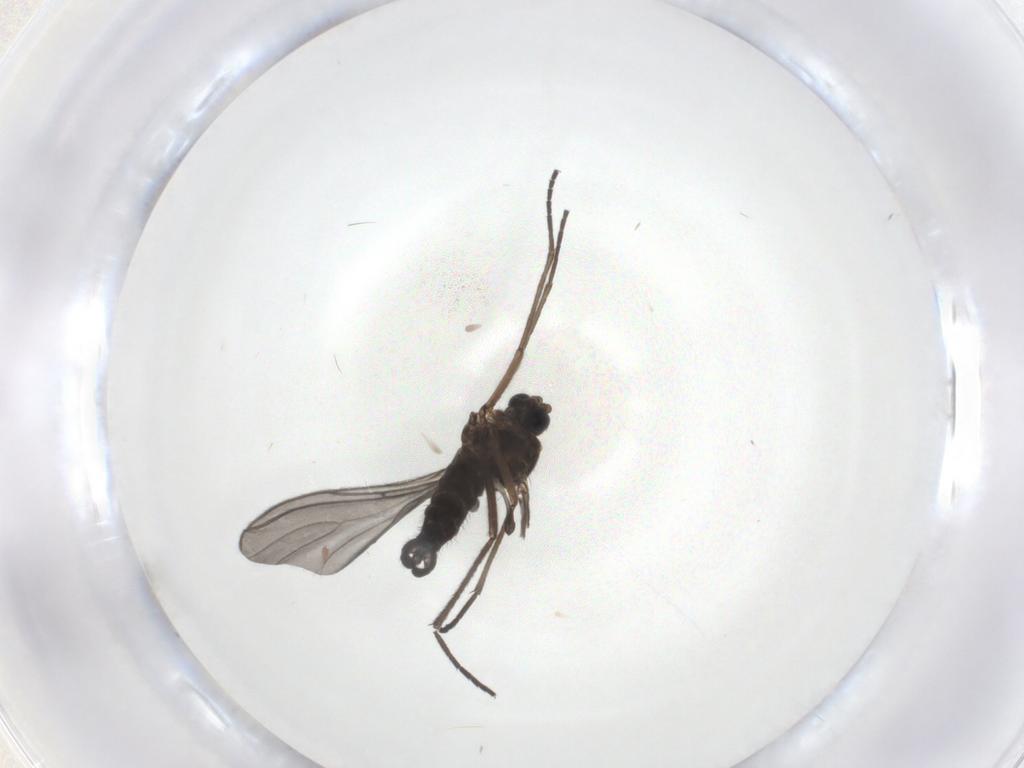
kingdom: Animalia
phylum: Arthropoda
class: Insecta
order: Diptera
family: Sciaridae
